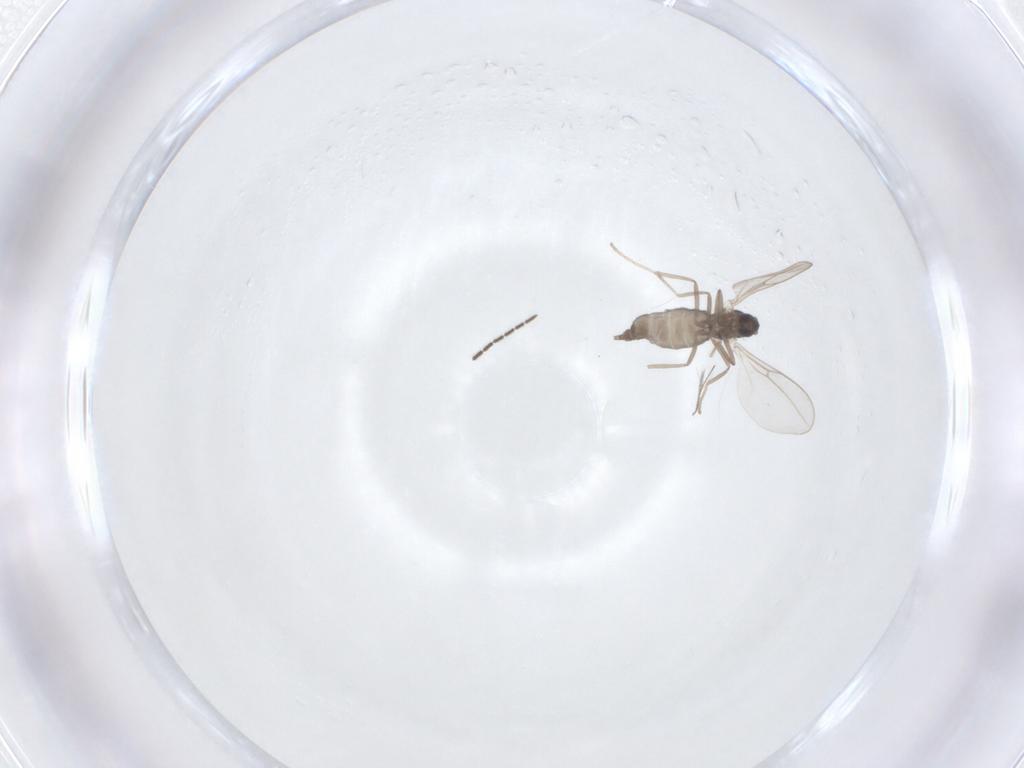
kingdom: Animalia
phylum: Arthropoda
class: Insecta
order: Diptera
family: Cecidomyiidae
